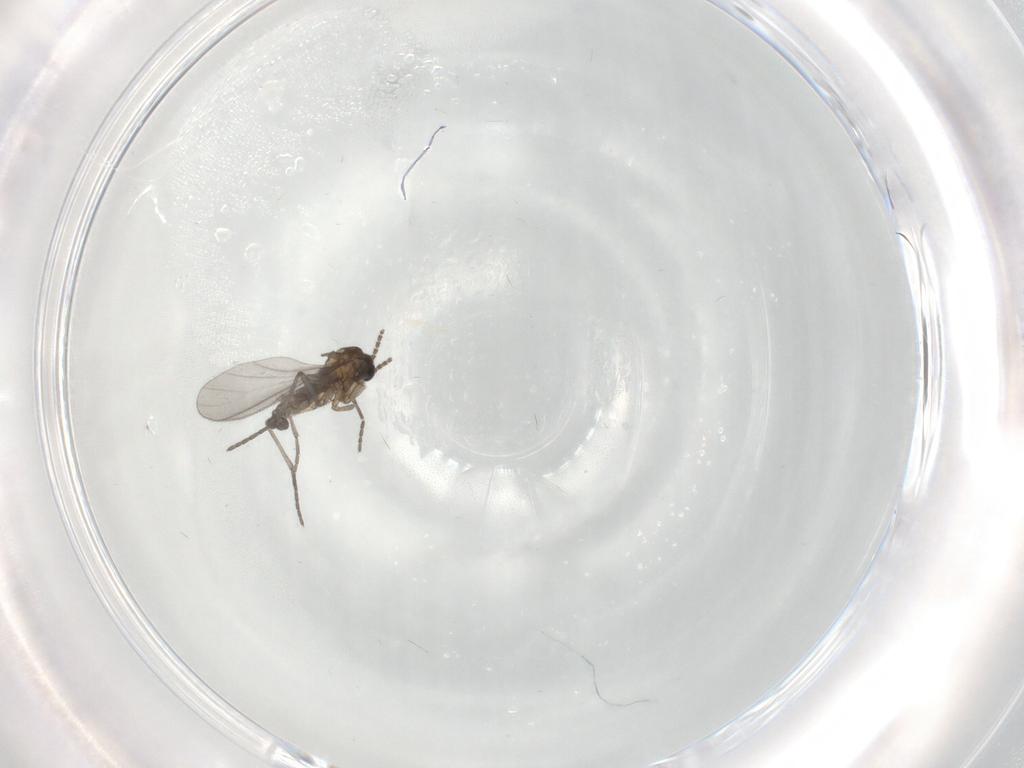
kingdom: Animalia
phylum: Arthropoda
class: Insecta
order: Diptera
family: Sciaridae
